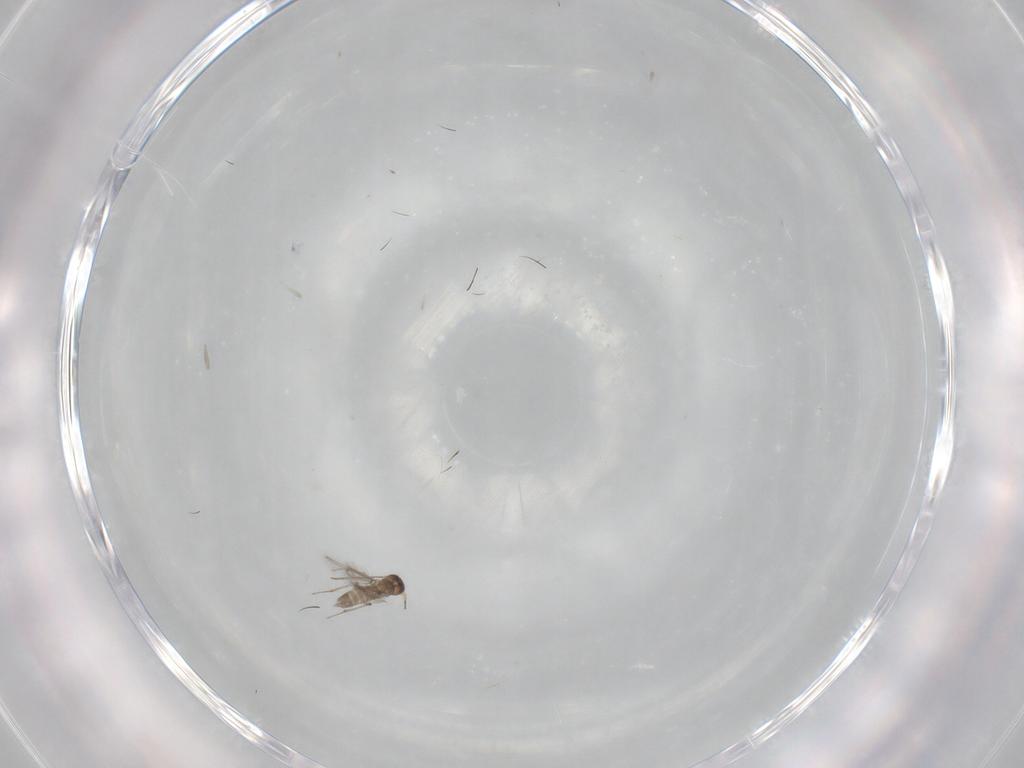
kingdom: Animalia
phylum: Arthropoda
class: Insecta
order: Hymenoptera
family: Mymaridae
